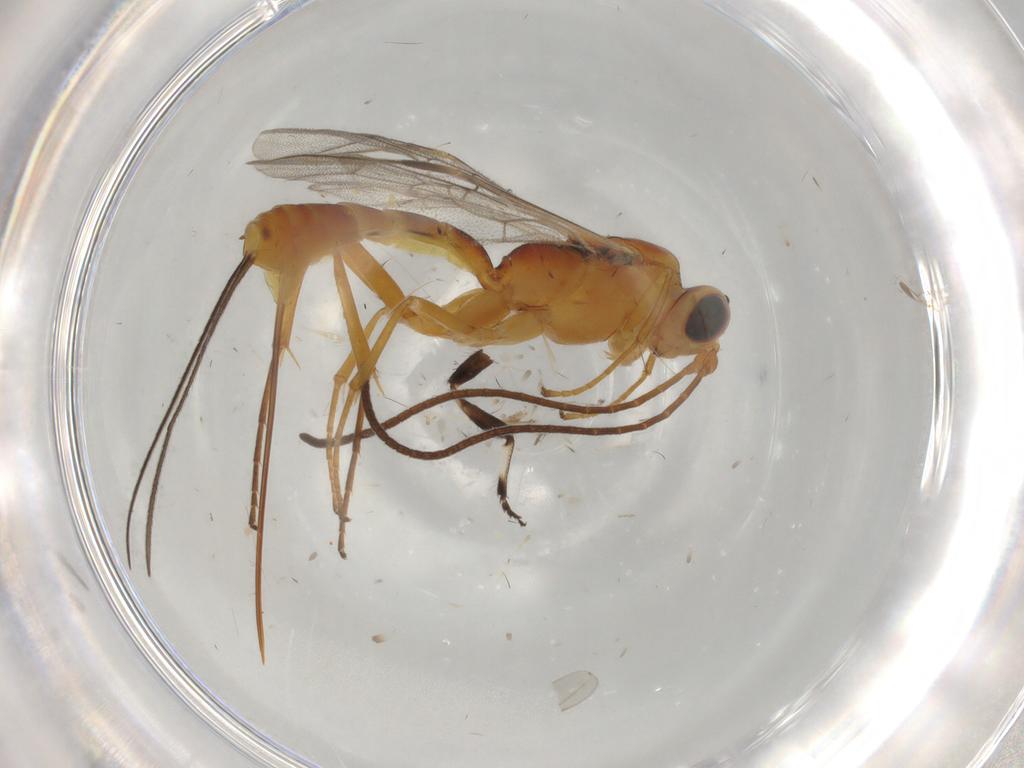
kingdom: Animalia
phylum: Arthropoda
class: Insecta
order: Hymenoptera
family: Ichneumonidae
